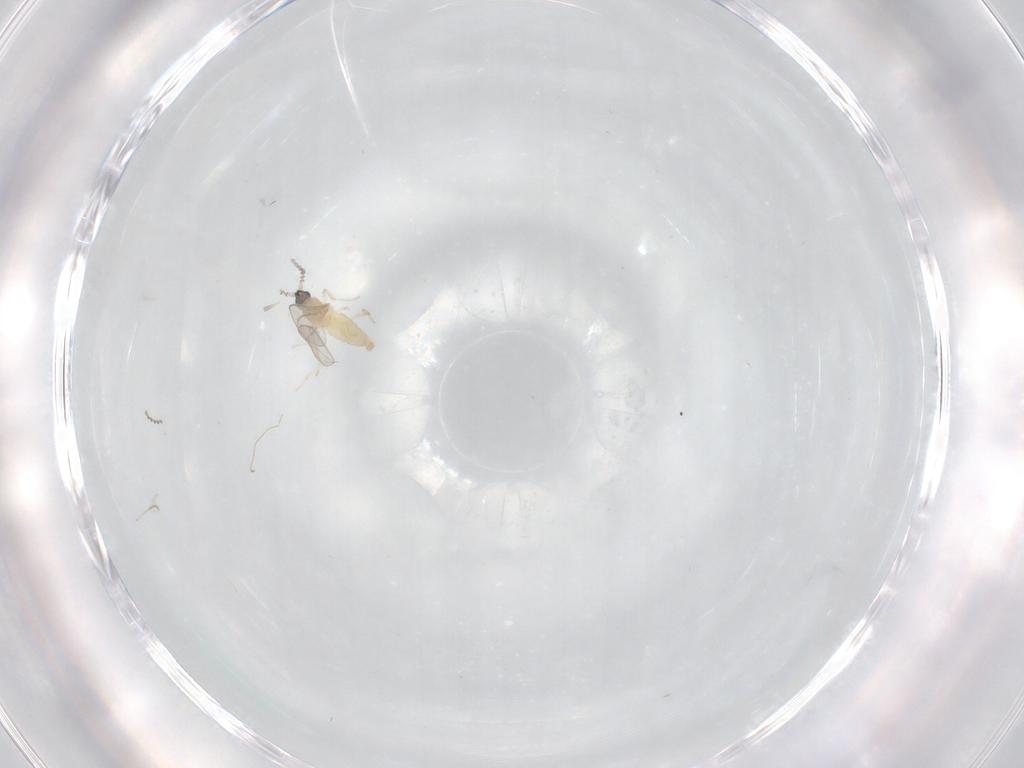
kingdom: Animalia
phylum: Arthropoda
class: Insecta
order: Diptera
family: Cecidomyiidae
